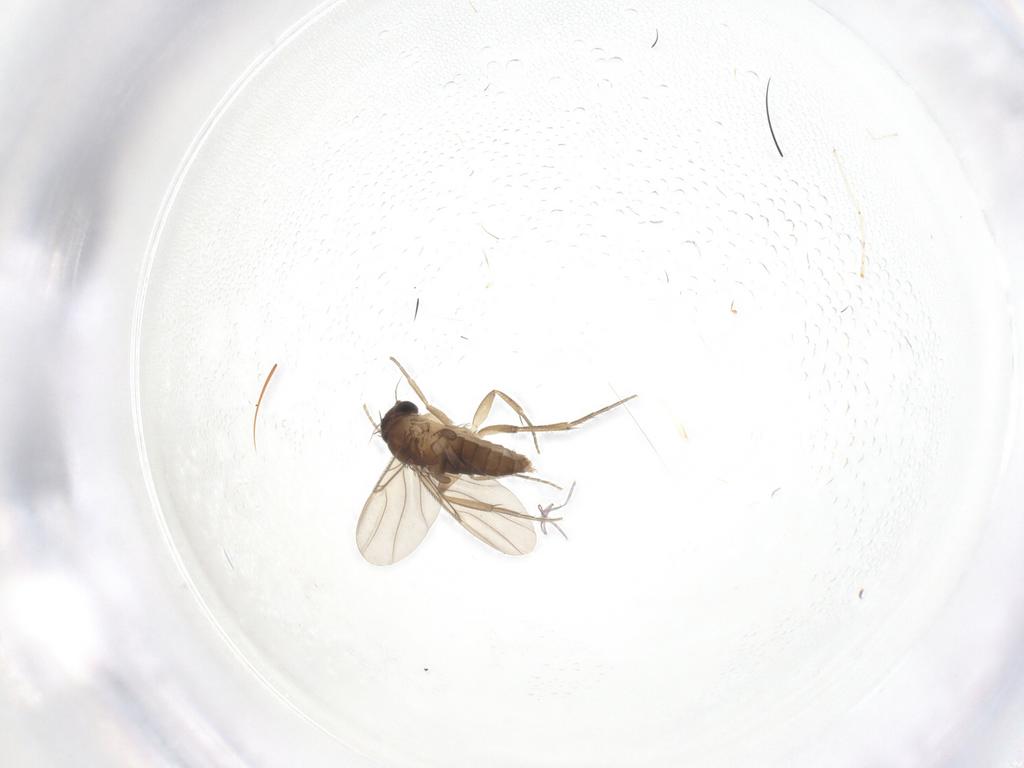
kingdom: Animalia
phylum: Arthropoda
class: Insecta
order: Diptera
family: Phoridae
